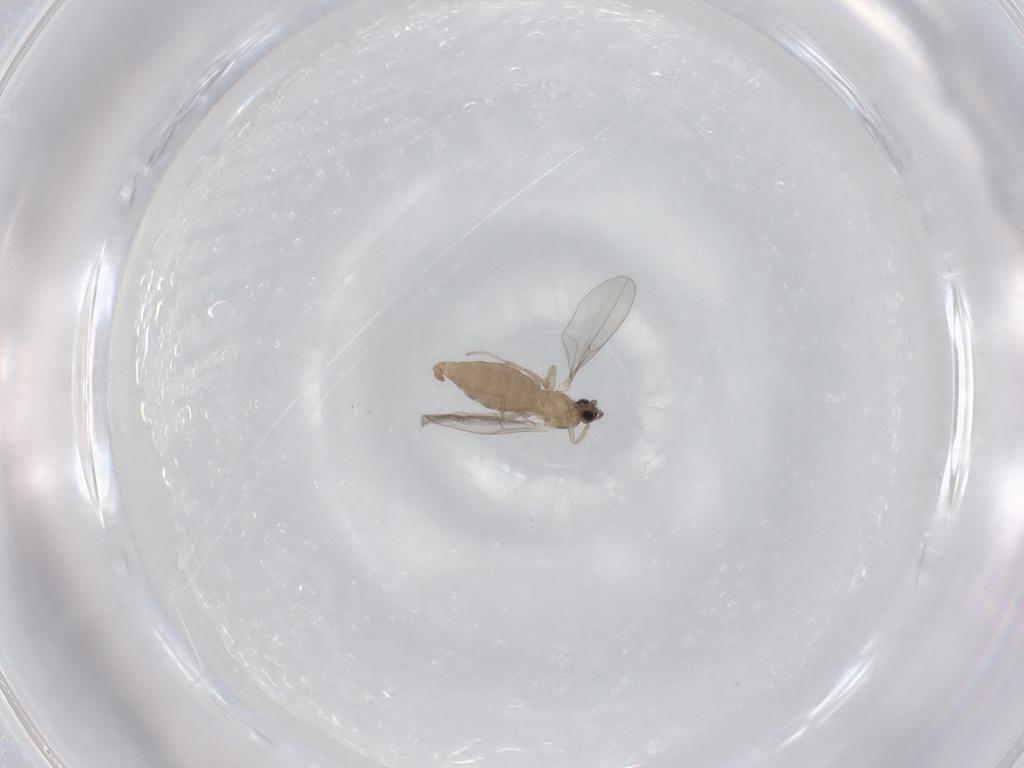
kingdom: Animalia
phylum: Arthropoda
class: Insecta
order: Diptera
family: Cecidomyiidae
